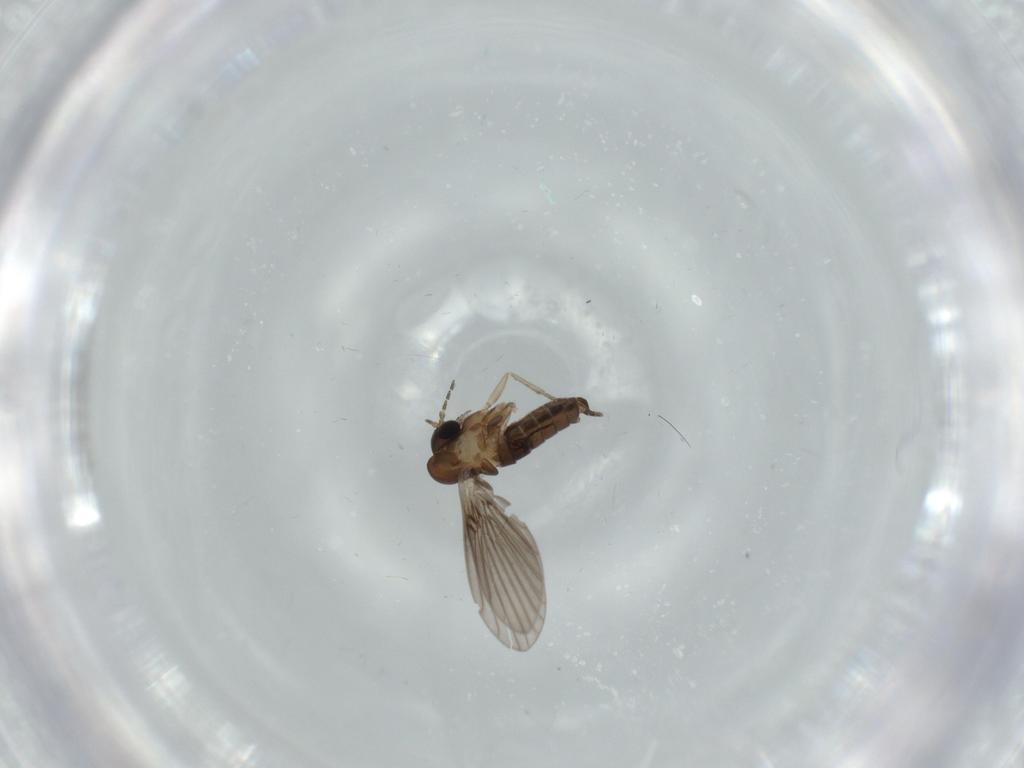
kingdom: Animalia
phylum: Arthropoda
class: Insecta
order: Diptera
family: Psychodidae
